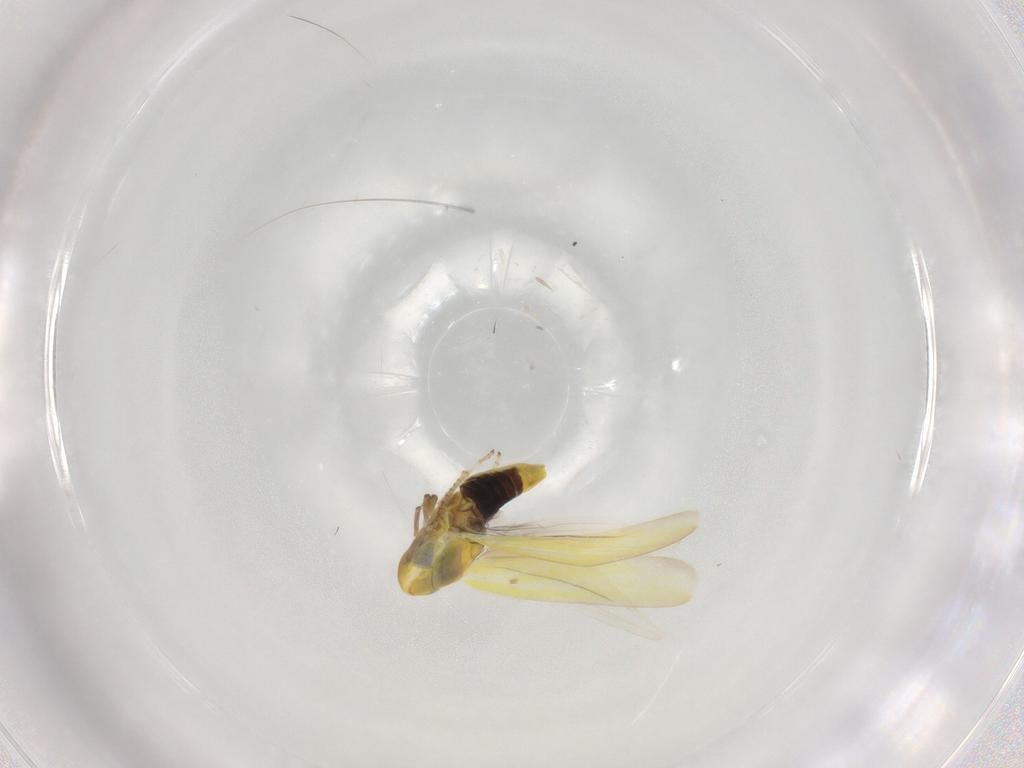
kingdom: Animalia
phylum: Arthropoda
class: Insecta
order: Hemiptera
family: Cicadellidae
